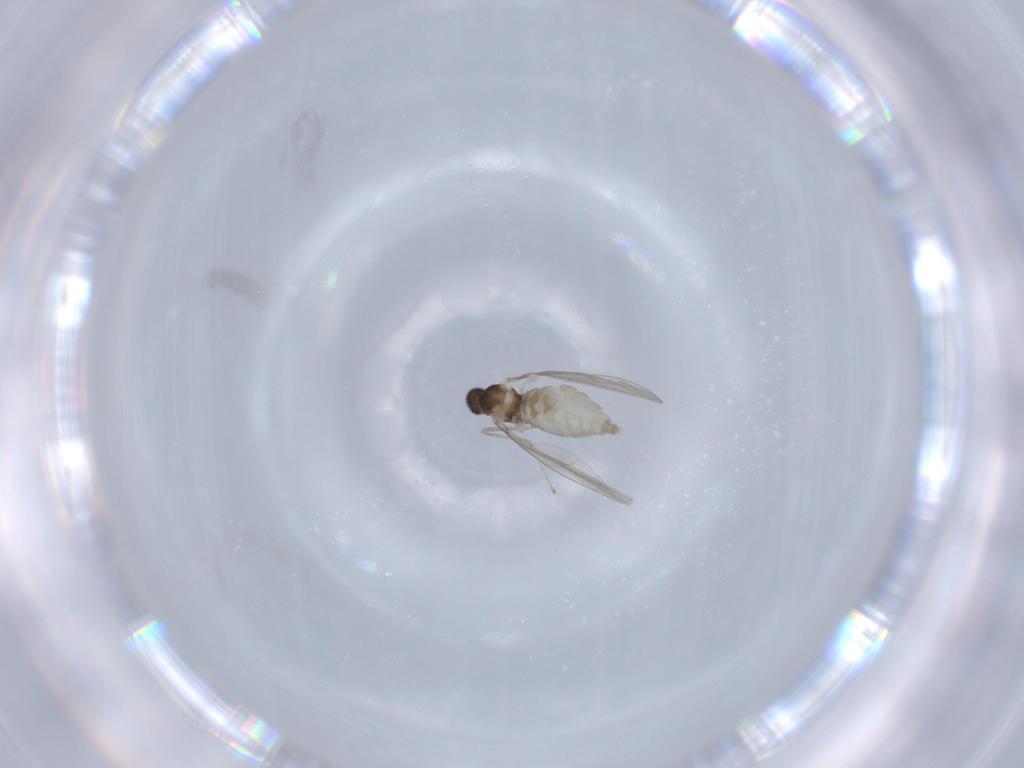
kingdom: Animalia
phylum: Arthropoda
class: Insecta
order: Diptera
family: Cecidomyiidae
